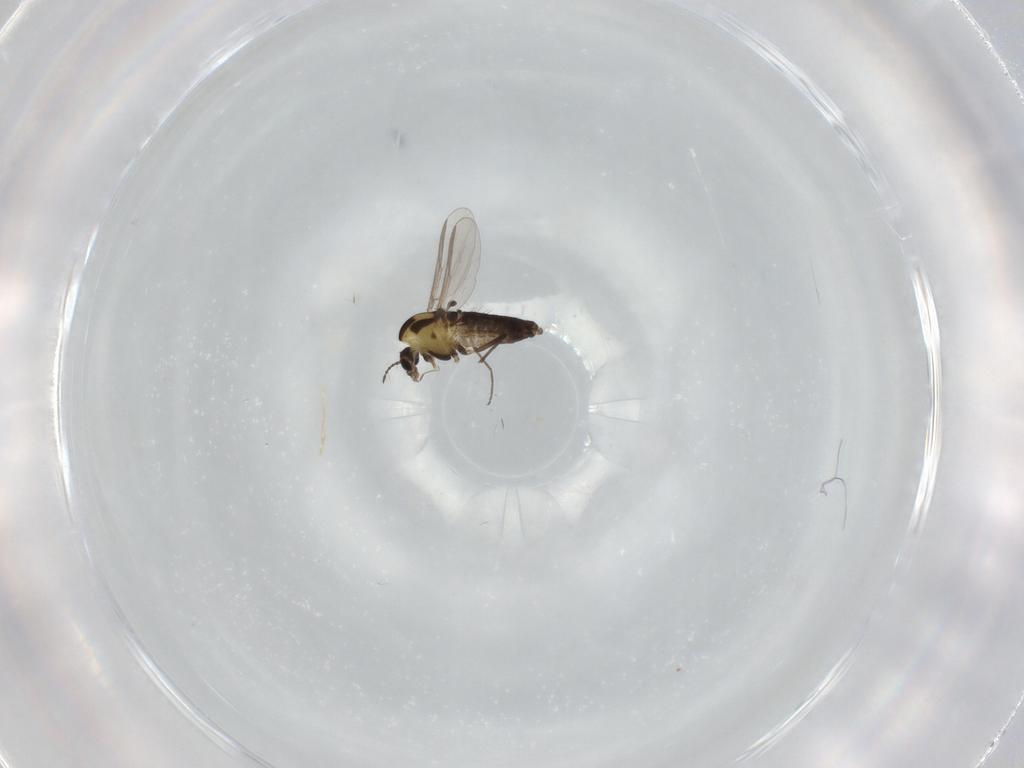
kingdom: Animalia
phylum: Arthropoda
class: Insecta
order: Diptera
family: Chironomidae
